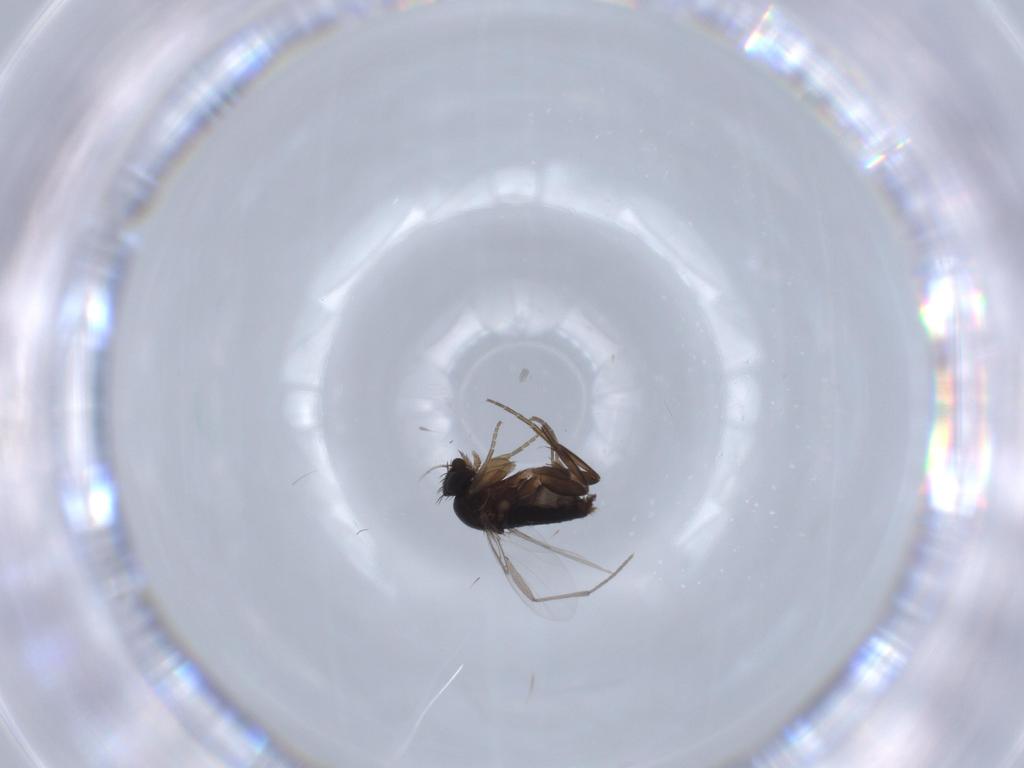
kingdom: Animalia
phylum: Arthropoda
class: Insecta
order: Diptera
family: Phoridae
